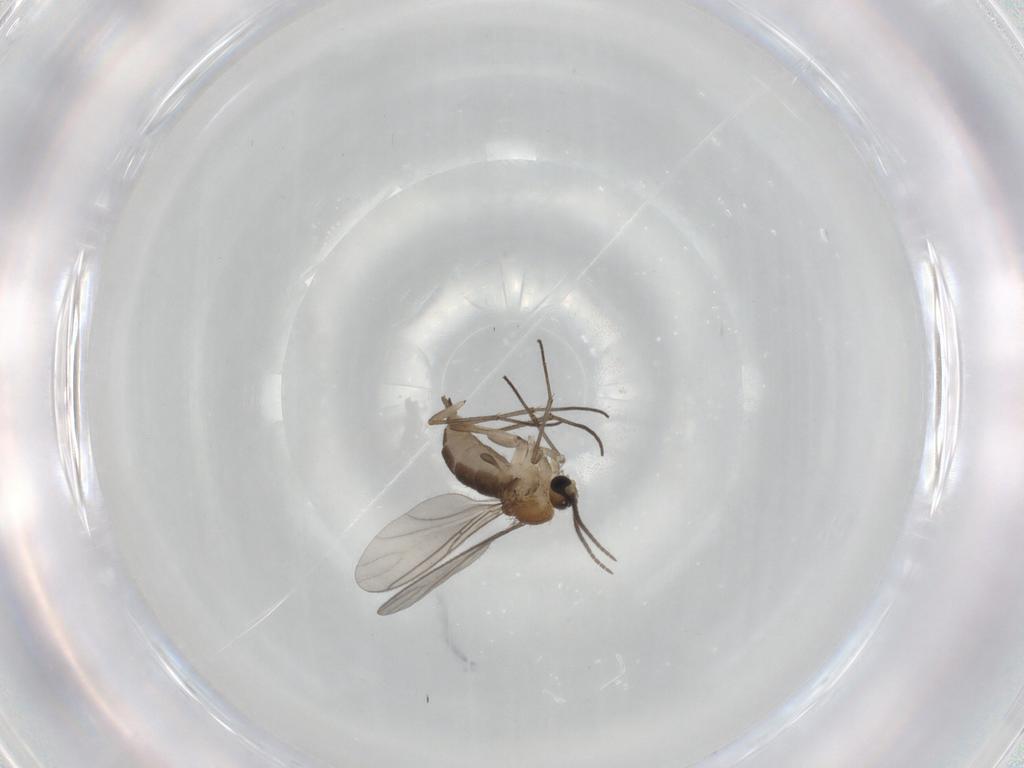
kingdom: Animalia
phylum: Arthropoda
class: Insecta
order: Diptera
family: Sciaridae
